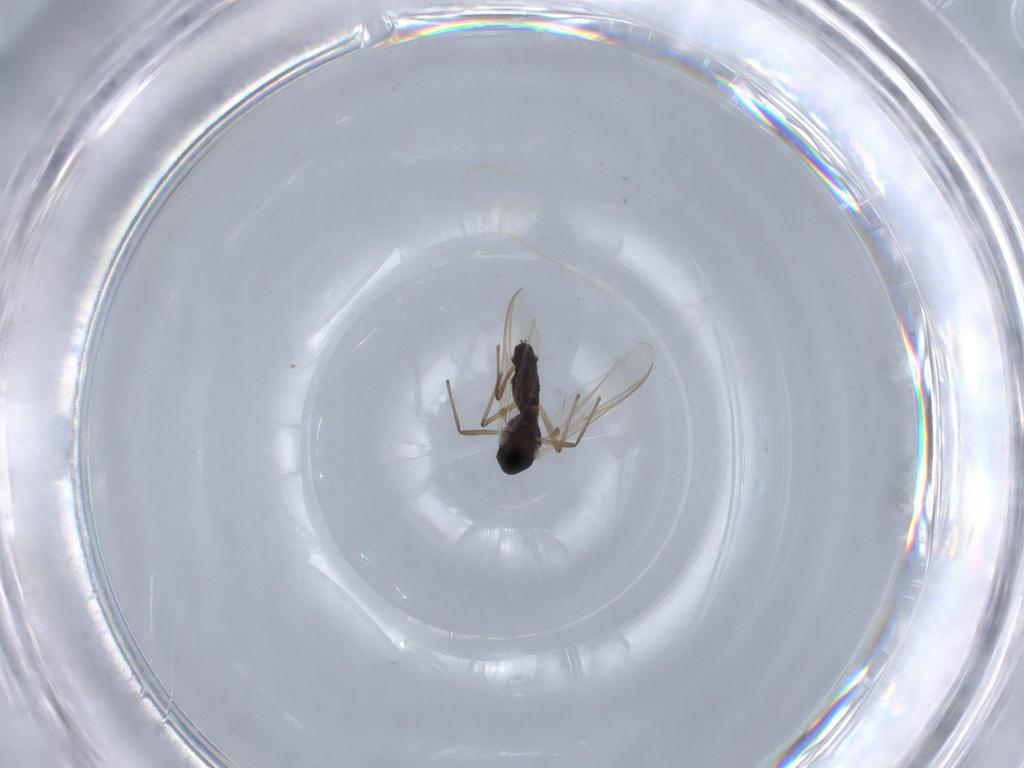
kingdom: Animalia
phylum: Arthropoda
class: Insecta
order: Diptera
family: Chironomidae
